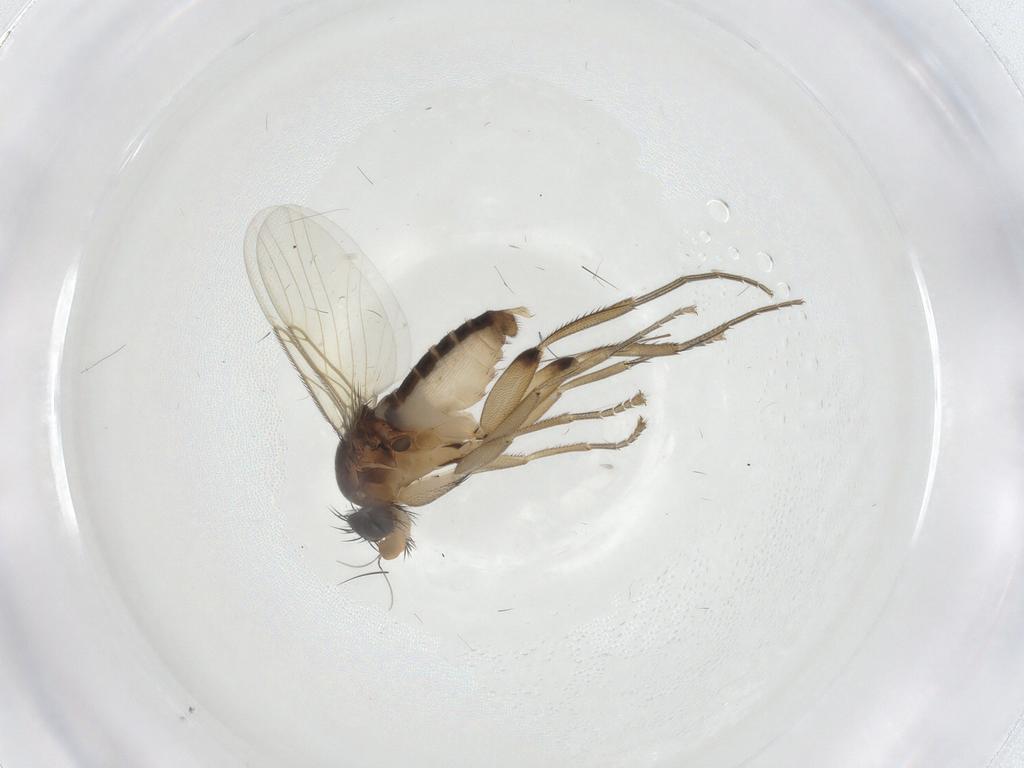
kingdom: Animalia
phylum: Arthropoda
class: Insecta
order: Diptera
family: Phoridae
